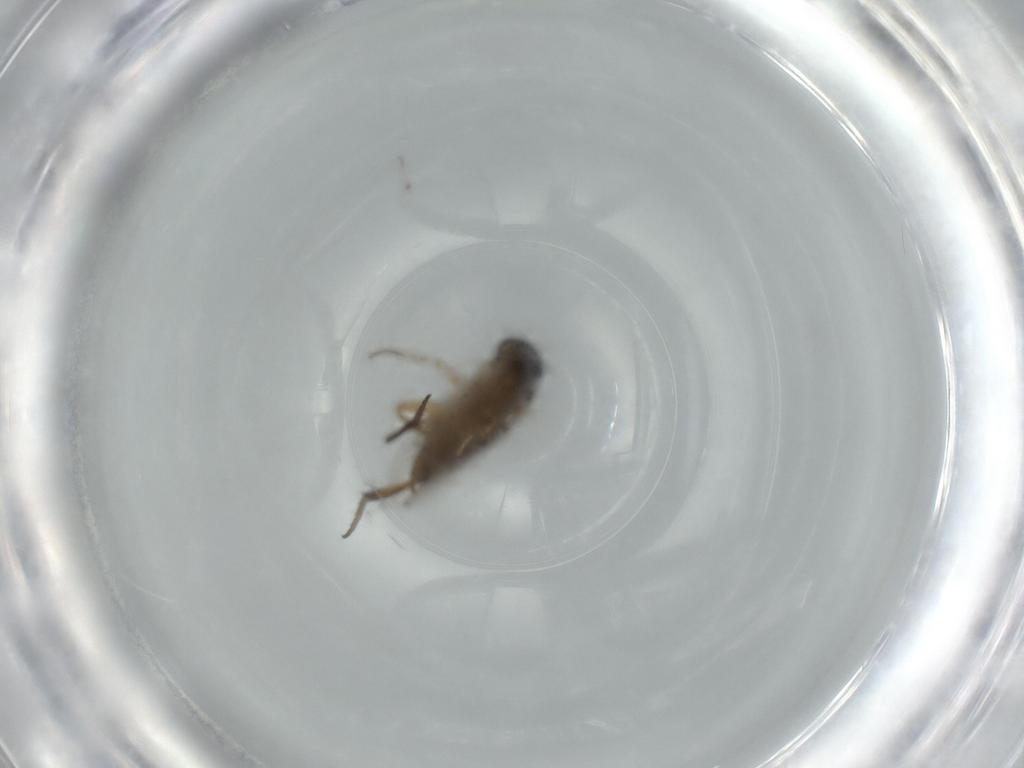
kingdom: Animalia
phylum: Arthropoda
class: Insecta
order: Diptera
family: Phoridae
